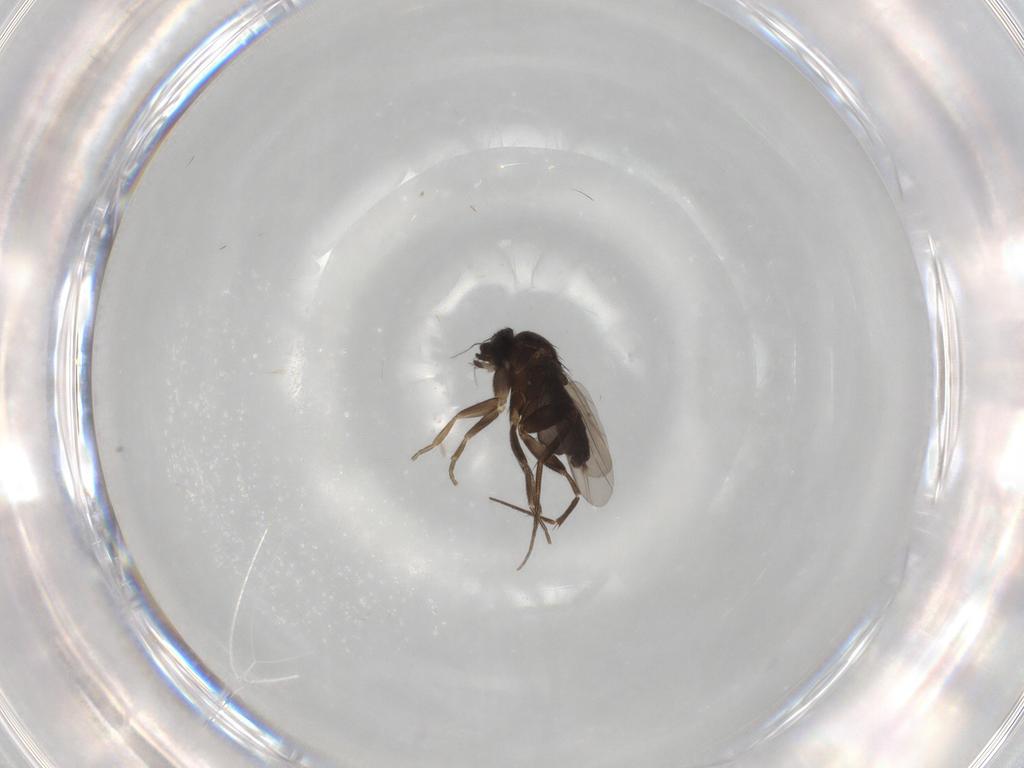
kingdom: Animalia
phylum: Arthropoda
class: Insecta
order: Diptera
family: Phoridae
